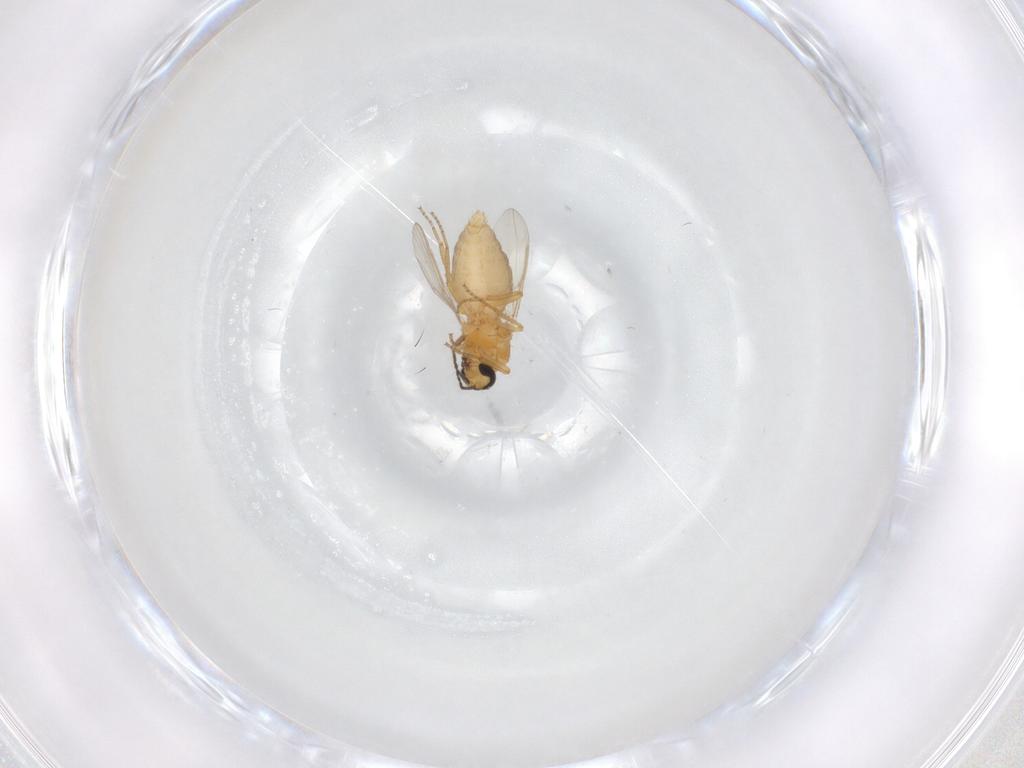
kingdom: Animalia
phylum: Arthropoda
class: Insecta
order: Diptera
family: Ceratopogonidae
